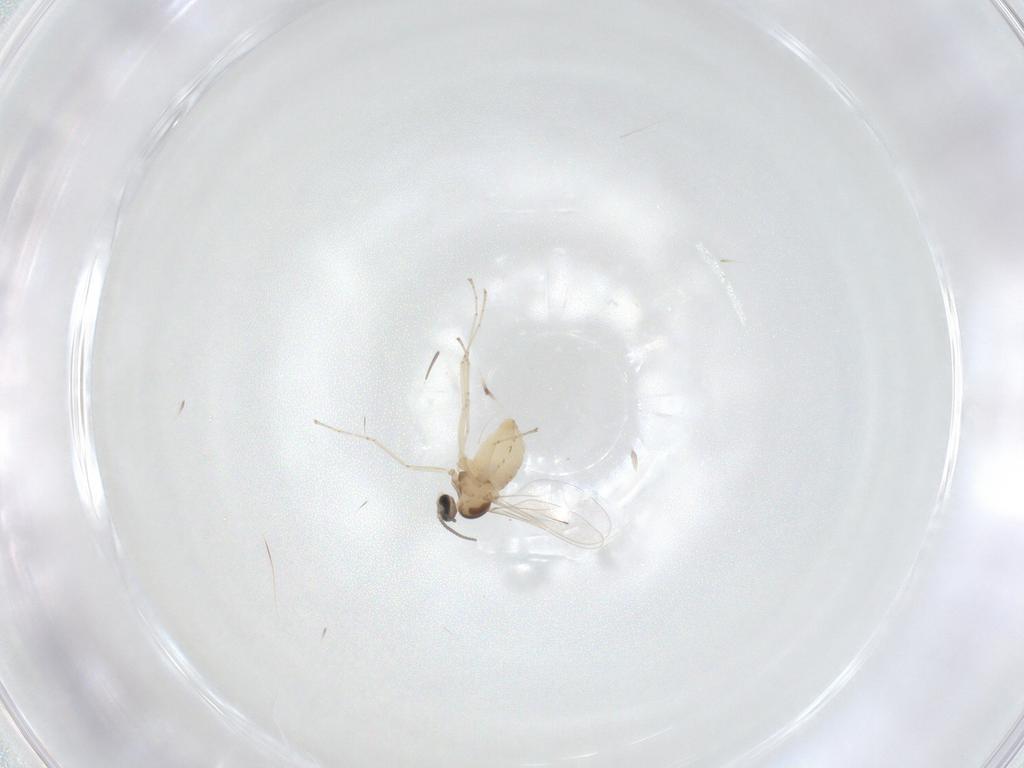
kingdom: Animalia
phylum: Arthropoda
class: Insecta
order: Diptera
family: Cecidomyiidae
